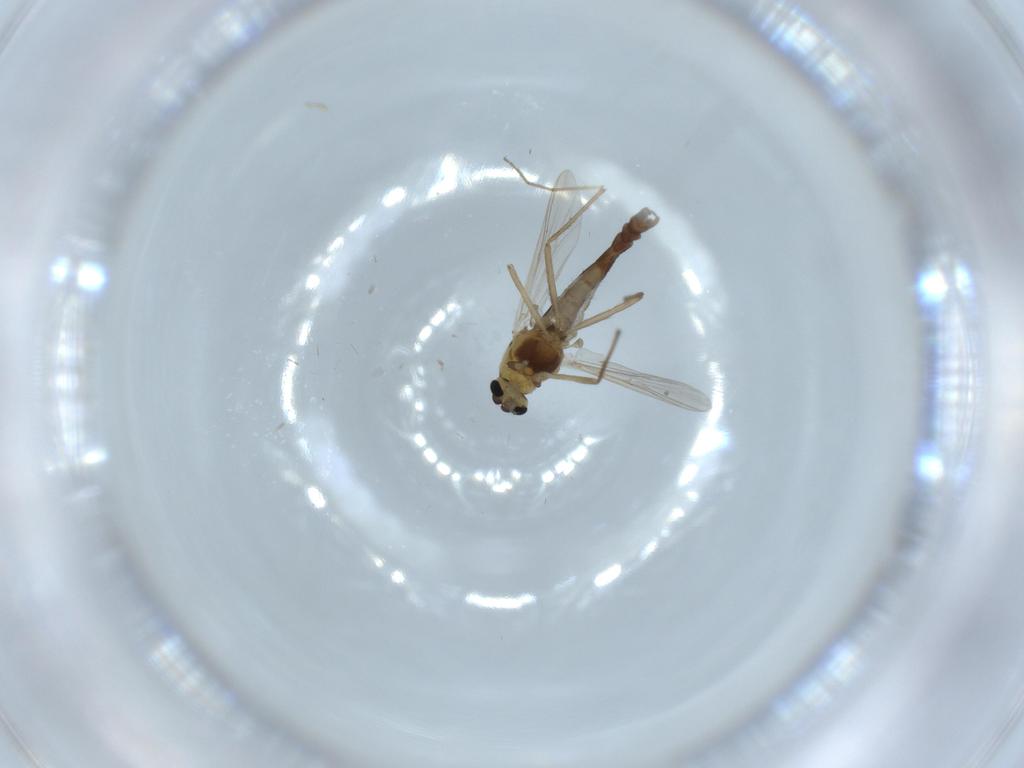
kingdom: Animalia
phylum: Arthropoda
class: Insecta
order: Diptera
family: Chironomidae
